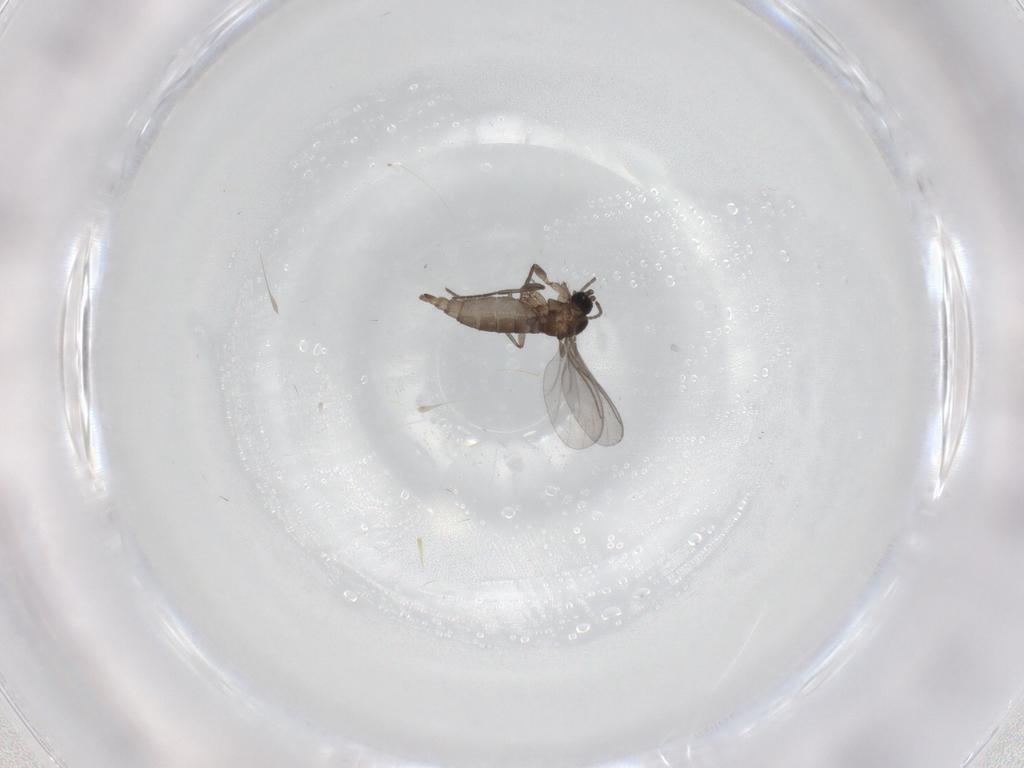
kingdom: Animalia
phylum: Arthropoda
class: Insecta
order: Diptera
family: Sciaridae
